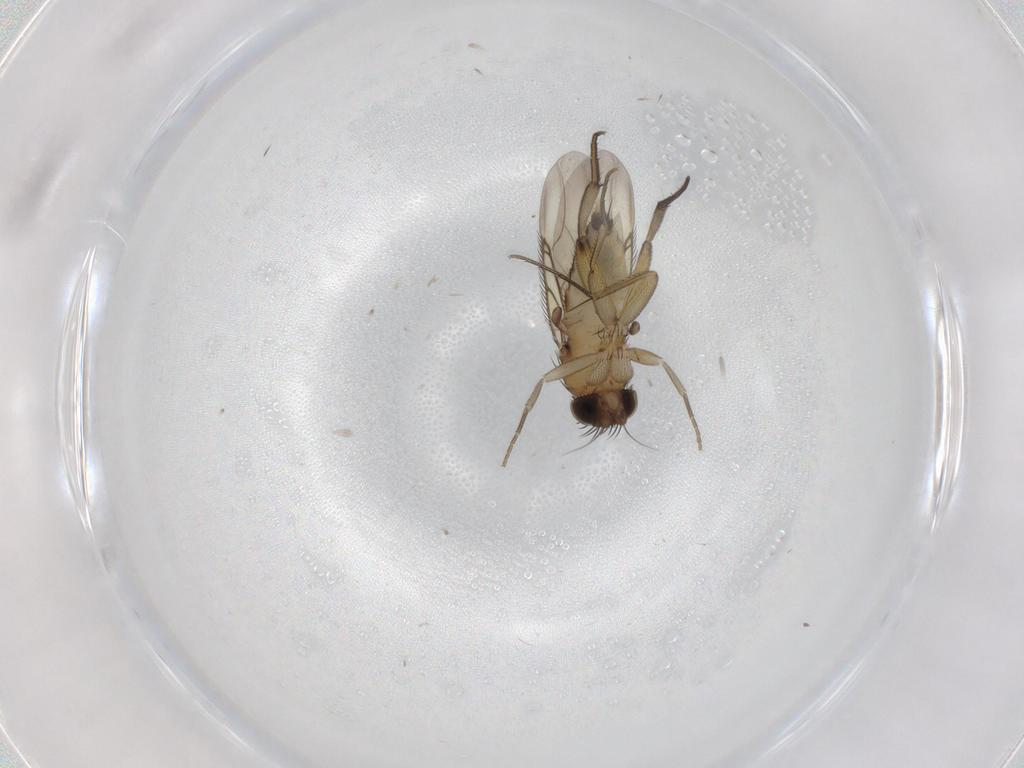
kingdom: Animalia
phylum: Arthropoda
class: Insecta
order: Diptera
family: Phoridae
